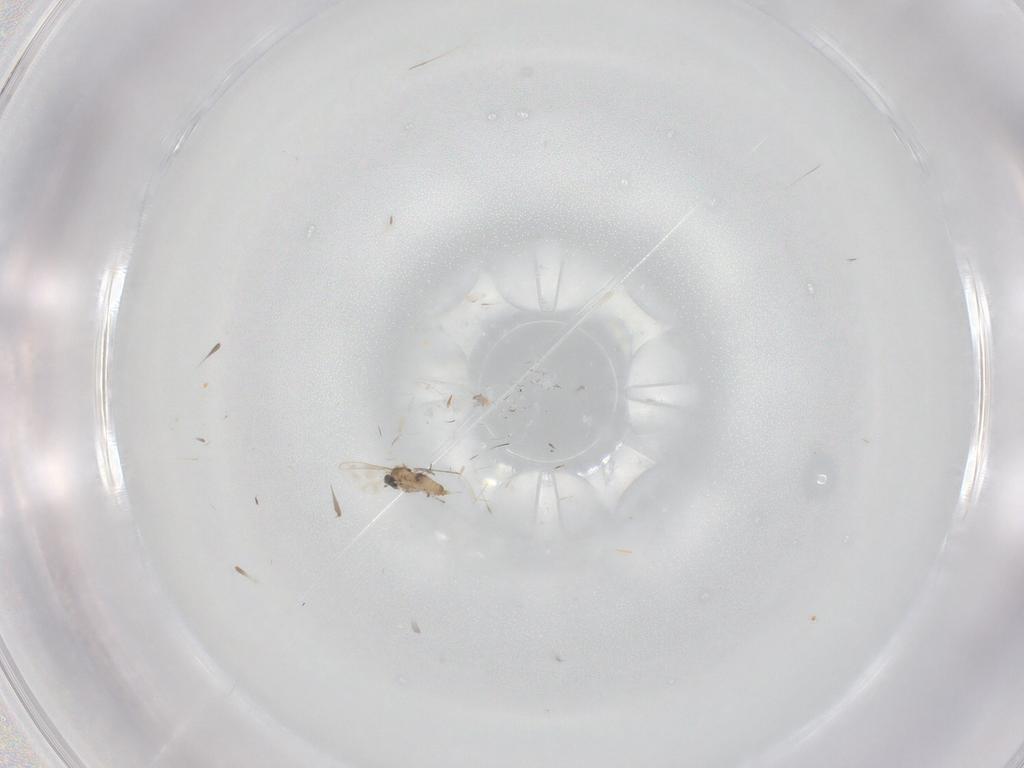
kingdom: Animalia
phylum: Arthropoda
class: Insecta
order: Diptera
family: Cecidomyiidae
